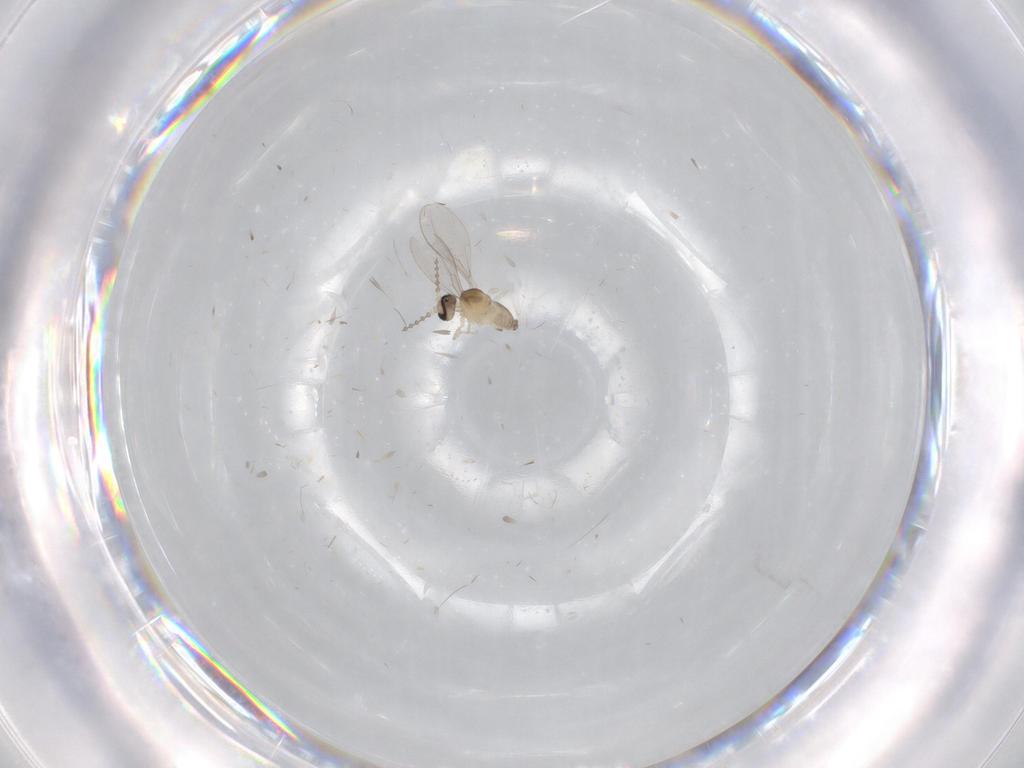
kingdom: Animalia
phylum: Arthropoda
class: Insecta
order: Diptera
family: Cecidomyiidae
